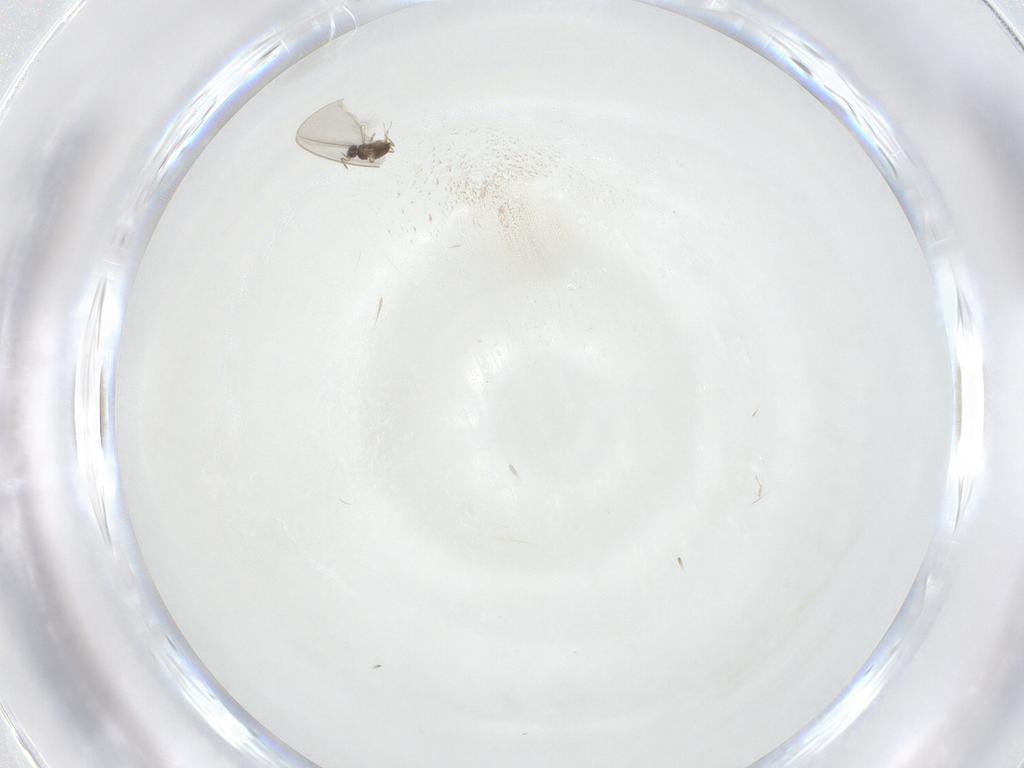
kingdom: Animalia
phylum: Arthropoda
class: Insecta
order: Diptera
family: Cecidomyiidae
